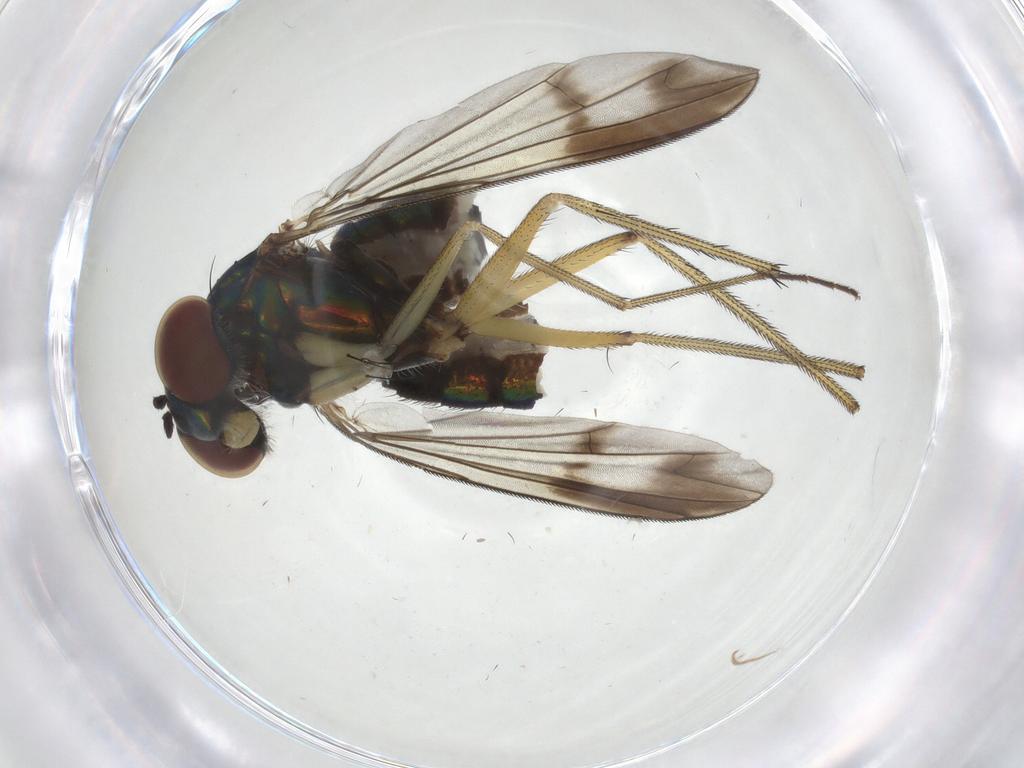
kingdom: Animalia
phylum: Arthropoda
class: Insecta
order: Diptera
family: Dolichopodidae
